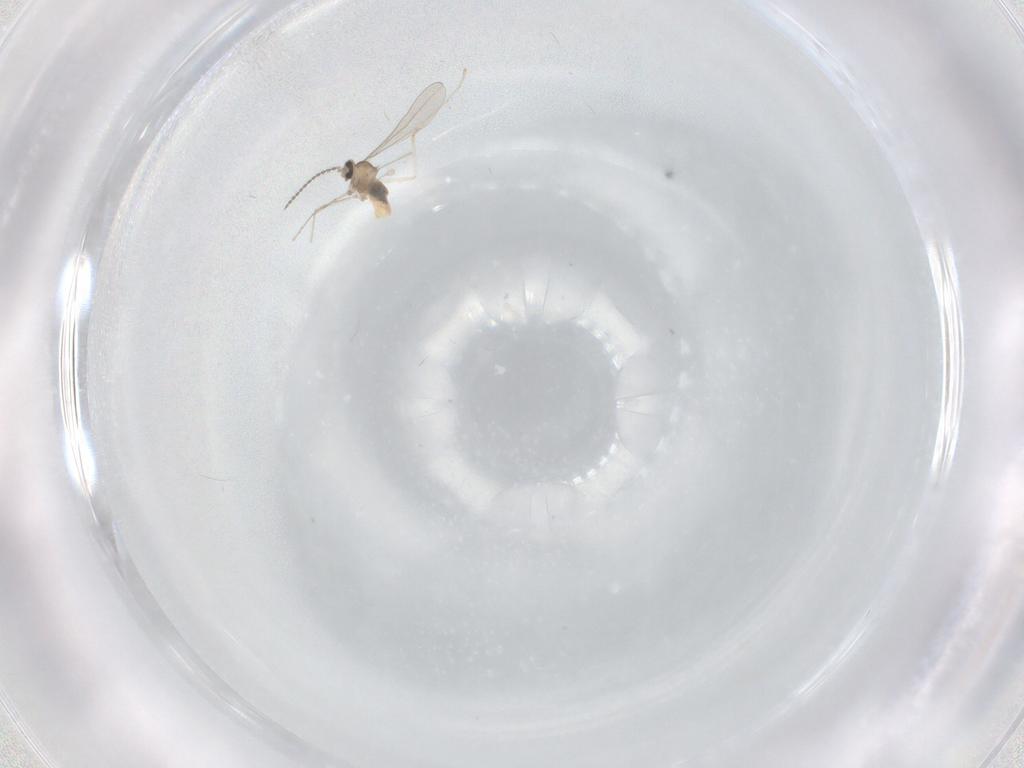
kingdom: Animalia
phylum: Arthropoda
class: Insecta
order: Diptera
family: Cecidomyiidae
